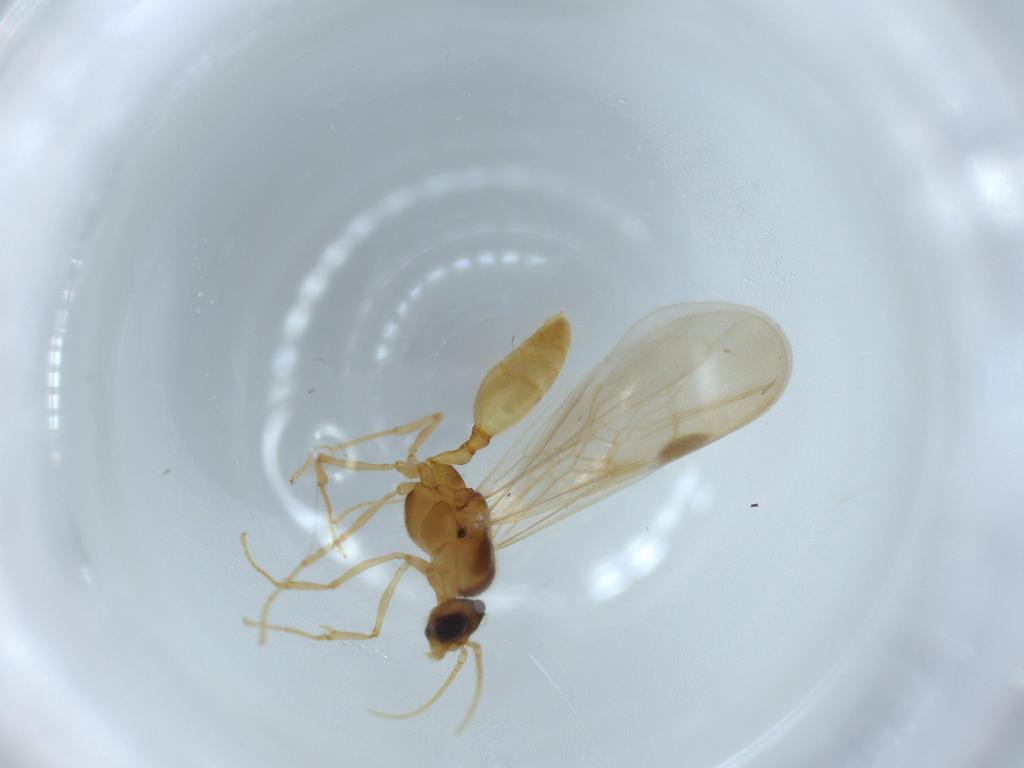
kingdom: Animalia
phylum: Arthropoda
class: Insecta
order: Hymenoptera
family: Formicidae
